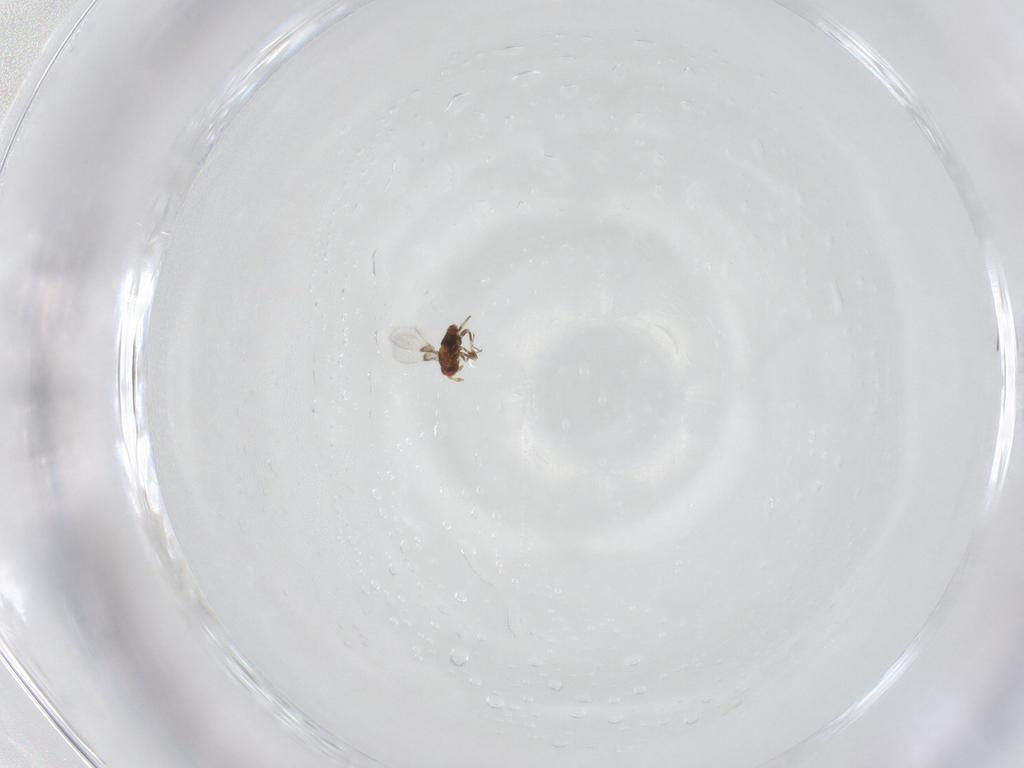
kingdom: Animalia
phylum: Arthropoda
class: Insecta
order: Hymenoptera
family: Trichogrammatidae
